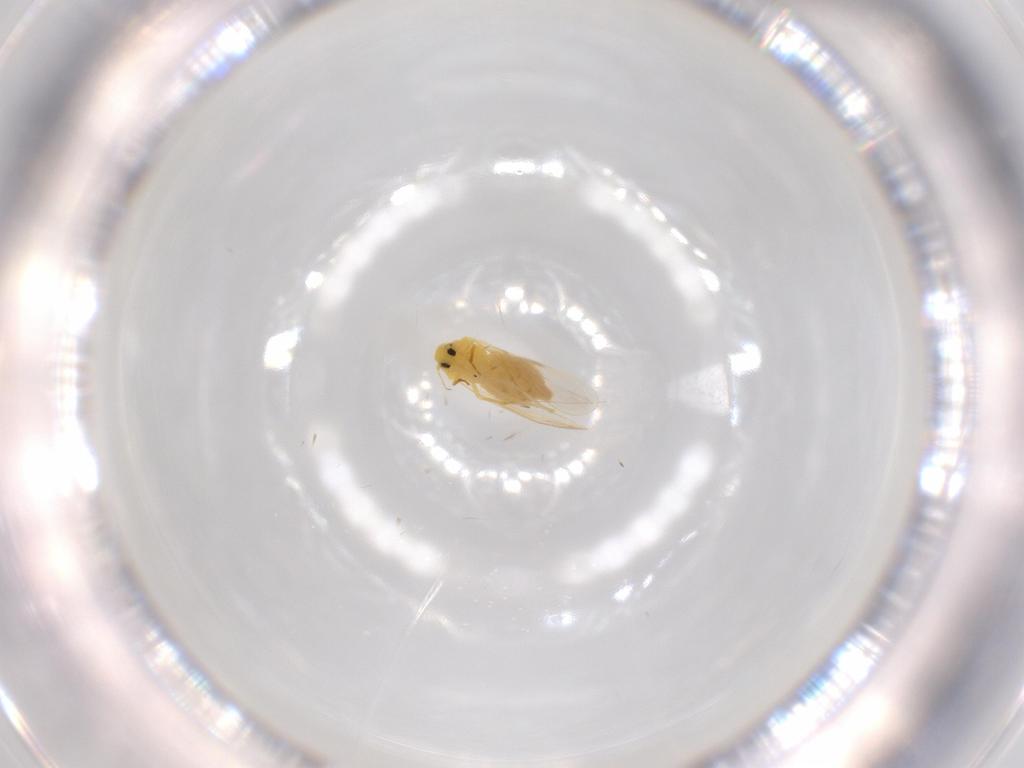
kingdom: Animalia
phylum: Arthropoda
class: Insecta
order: Hemiptera
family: Aleyrodidae
